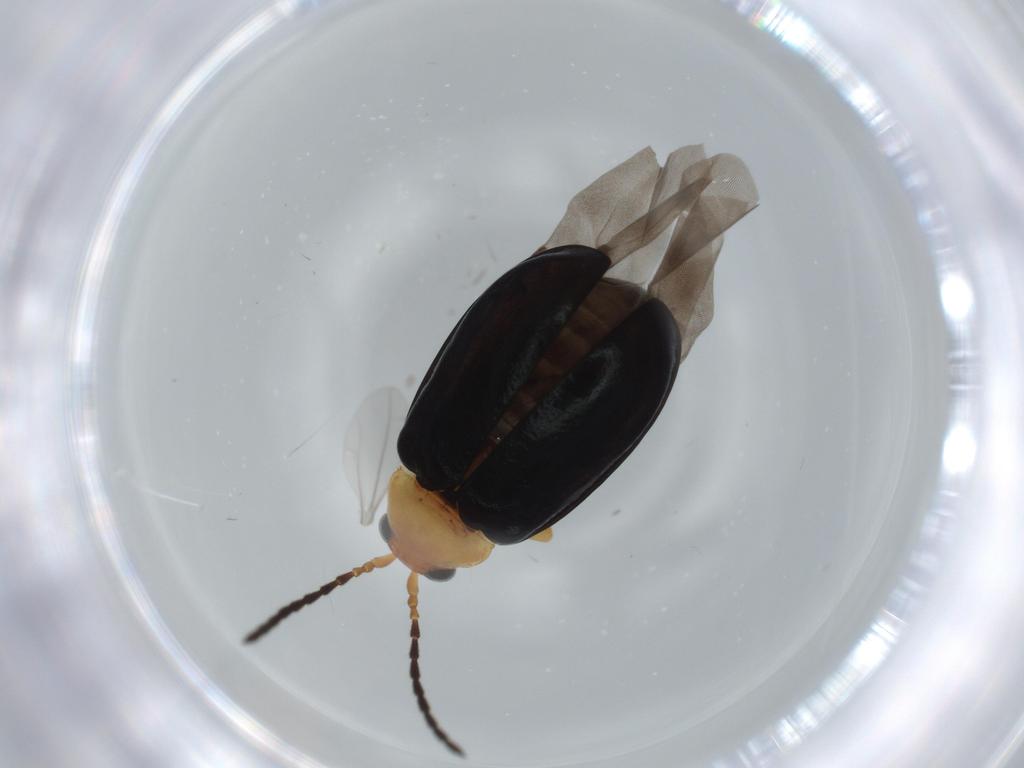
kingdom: Animalia
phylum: Arthropoda
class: Insecta
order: Coleoptera
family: Chrysomelidae
